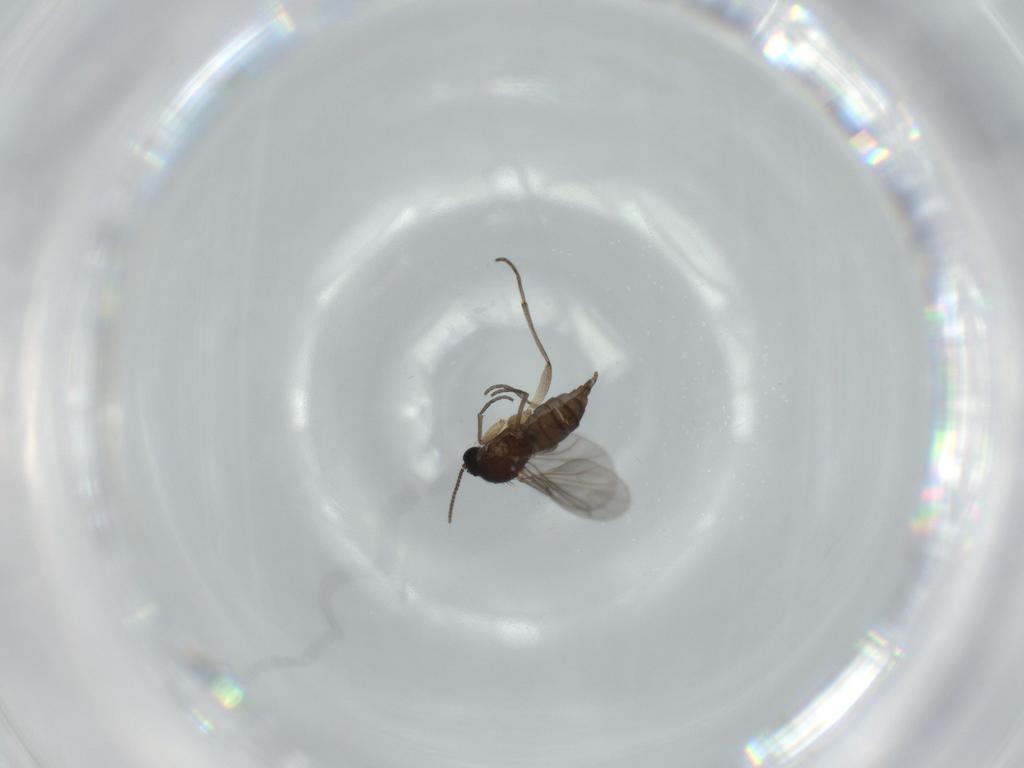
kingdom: Animalia
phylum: Arthropoda
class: Insecta
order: Diptera
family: Sciaridae
